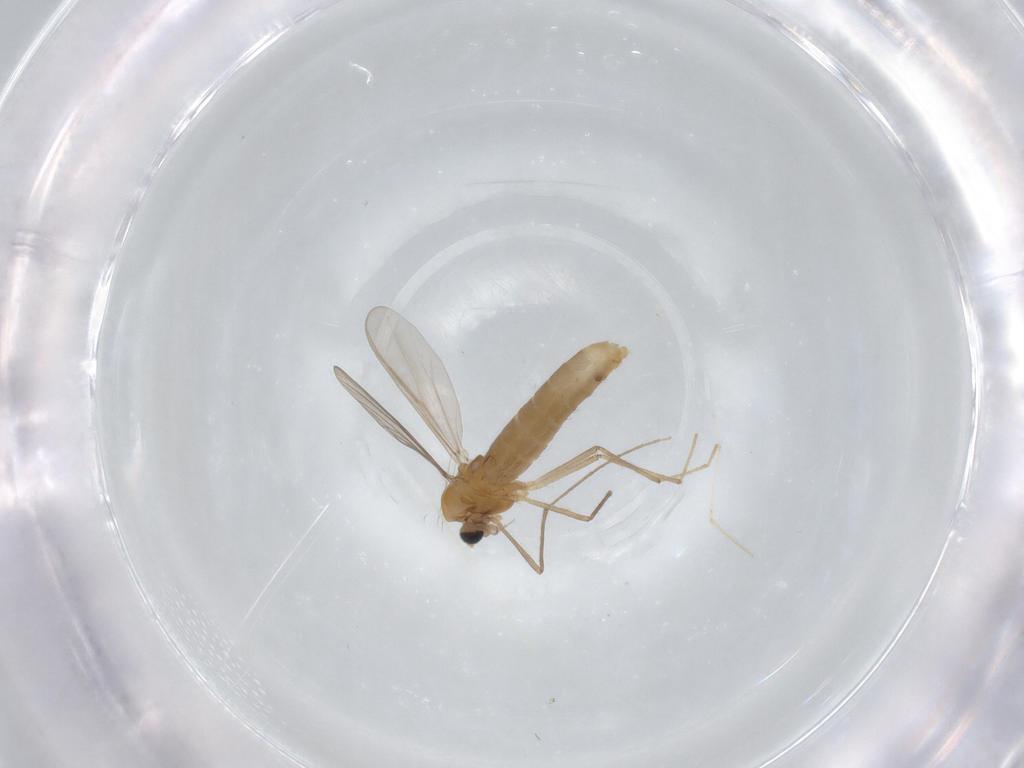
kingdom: Animalia
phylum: Arthropoda
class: Insecta
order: Diptera
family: Chironomidae
